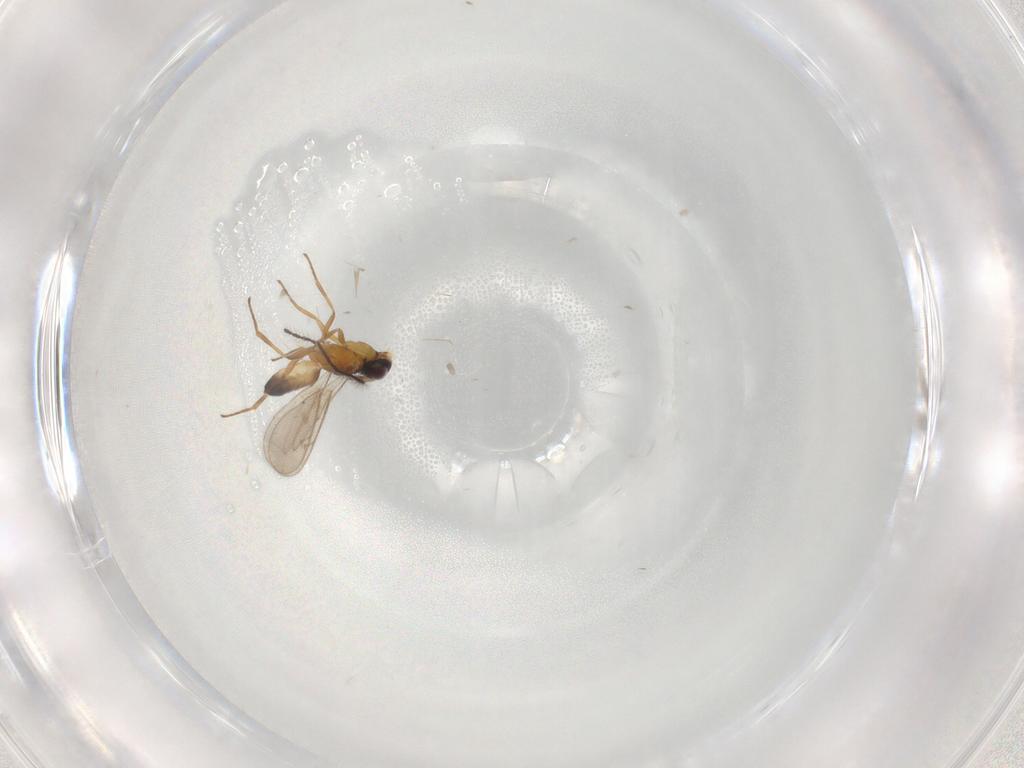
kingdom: Animalia
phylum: Arthropoda
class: Insecta
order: Hymenoptera
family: Eupelmidae
